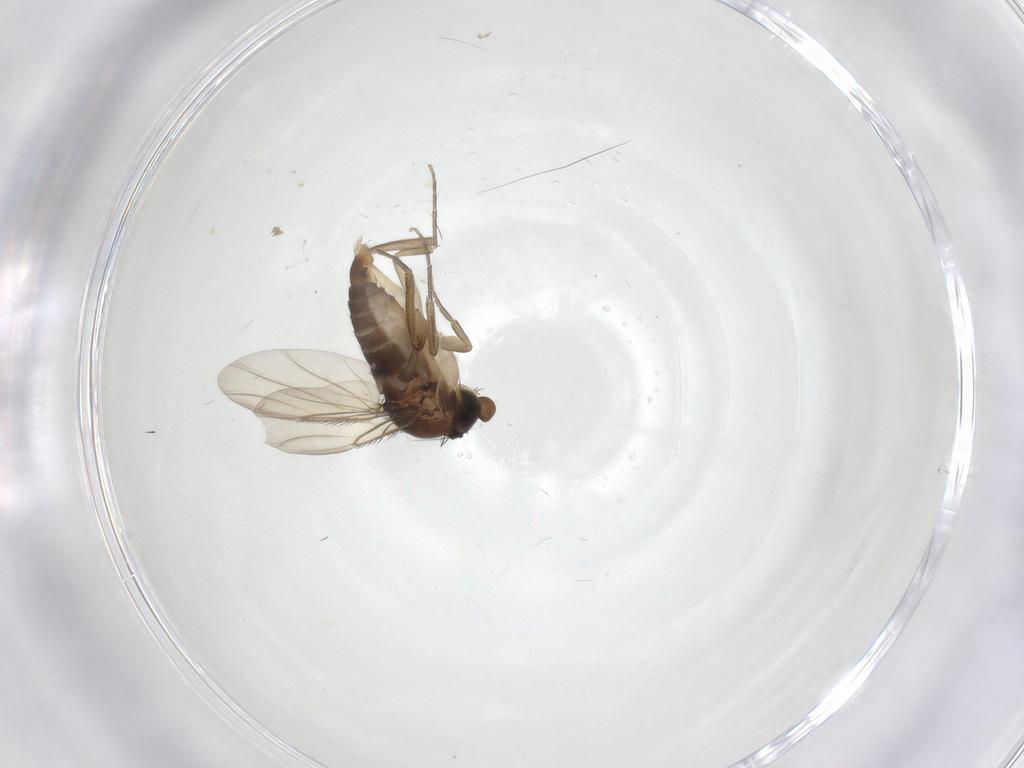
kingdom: Animalia
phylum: Arthropoda
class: Insecta
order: Diptera
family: Phoridae
